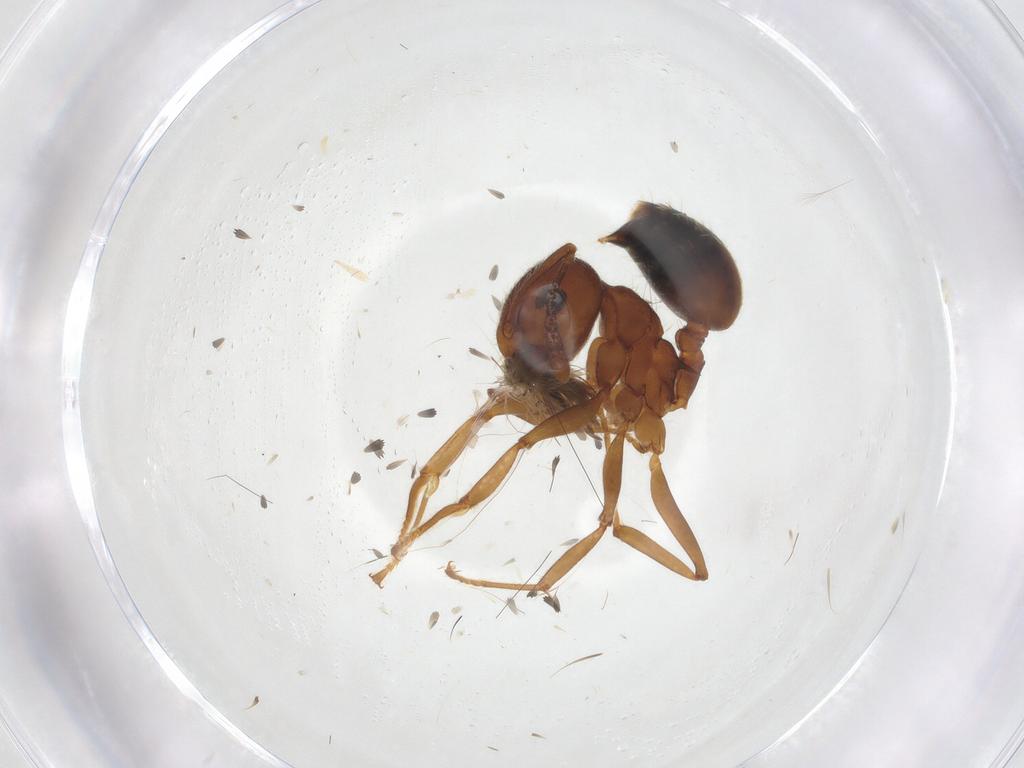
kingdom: Animalia
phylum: Arthropoda
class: Insecta
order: Hymenoptera
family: Formicidae
